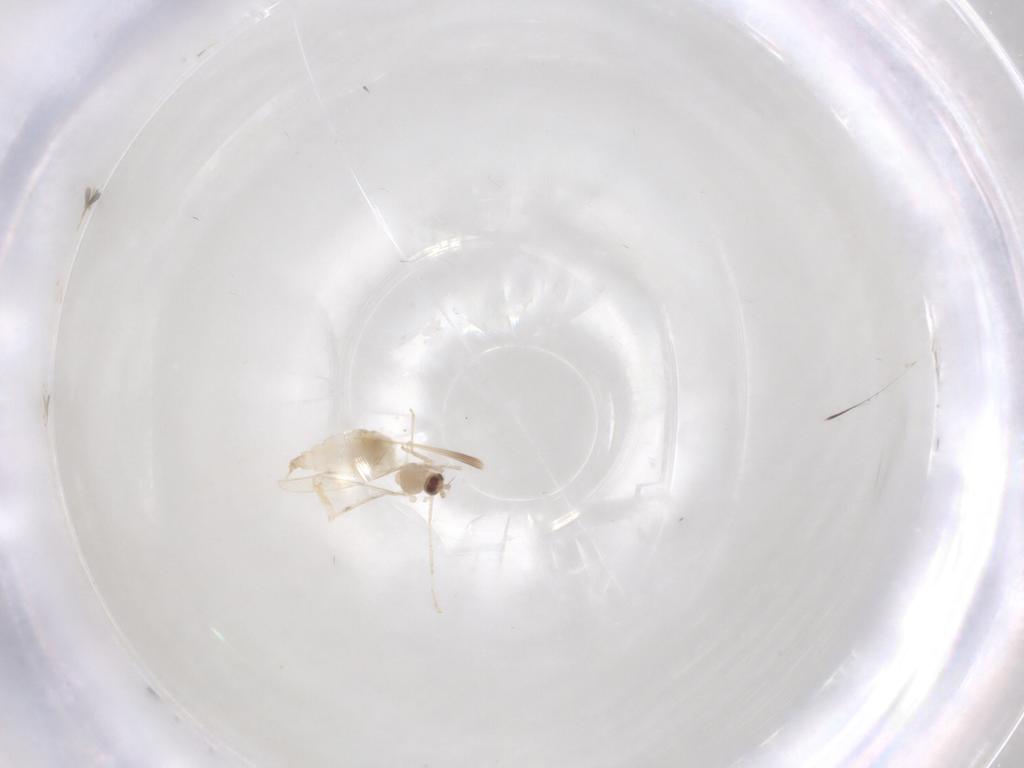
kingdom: Animalia
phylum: Arthropoda
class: Insecta
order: Diptera
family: Cecidomyiidae
